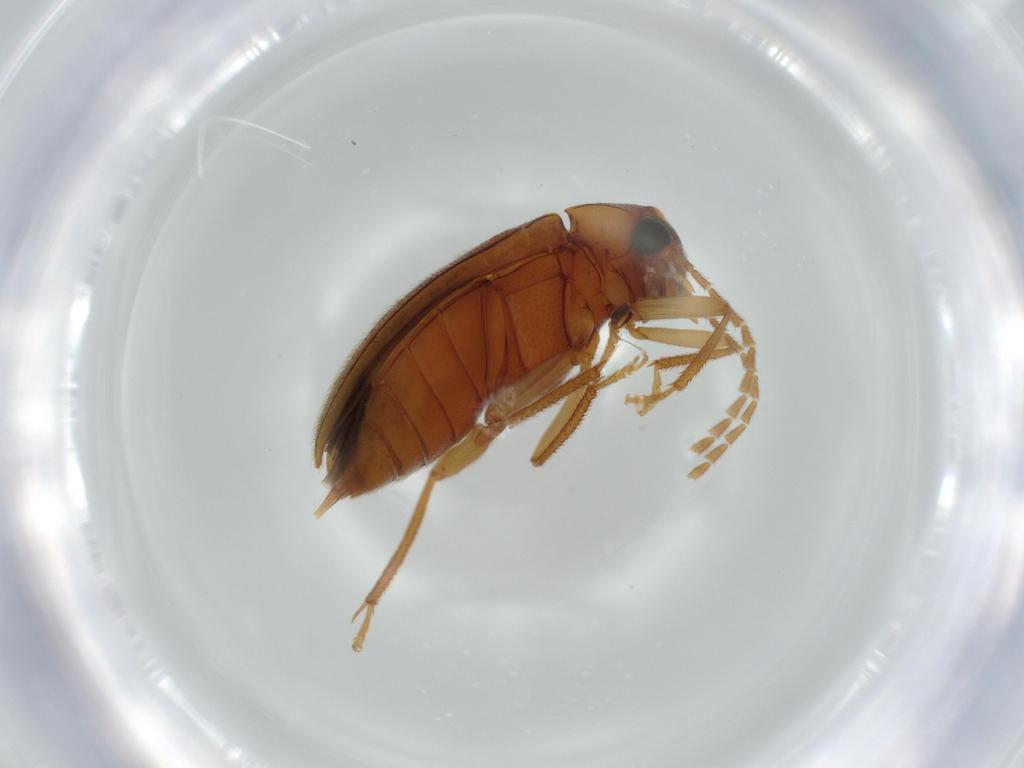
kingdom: Animalia
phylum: Arthropoda
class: Insecta
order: Coleoptera
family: Ptilodactylidae
